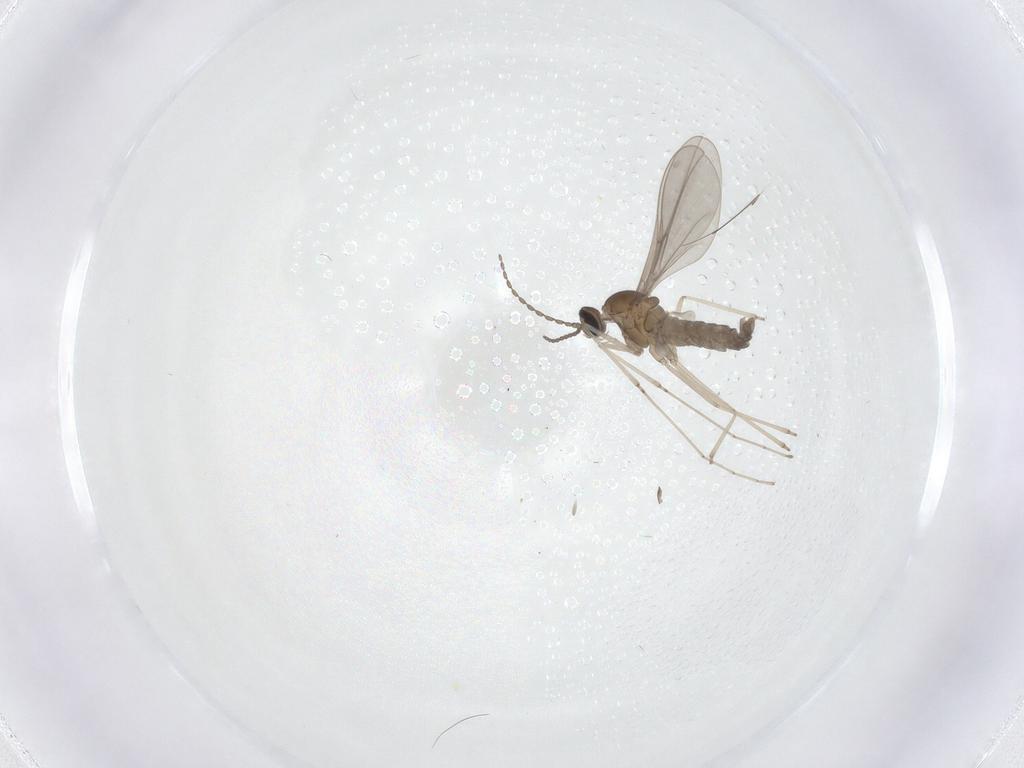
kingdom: Animalia
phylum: Arthropoda
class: Insecta
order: Diptera
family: Cecidomyiidae
